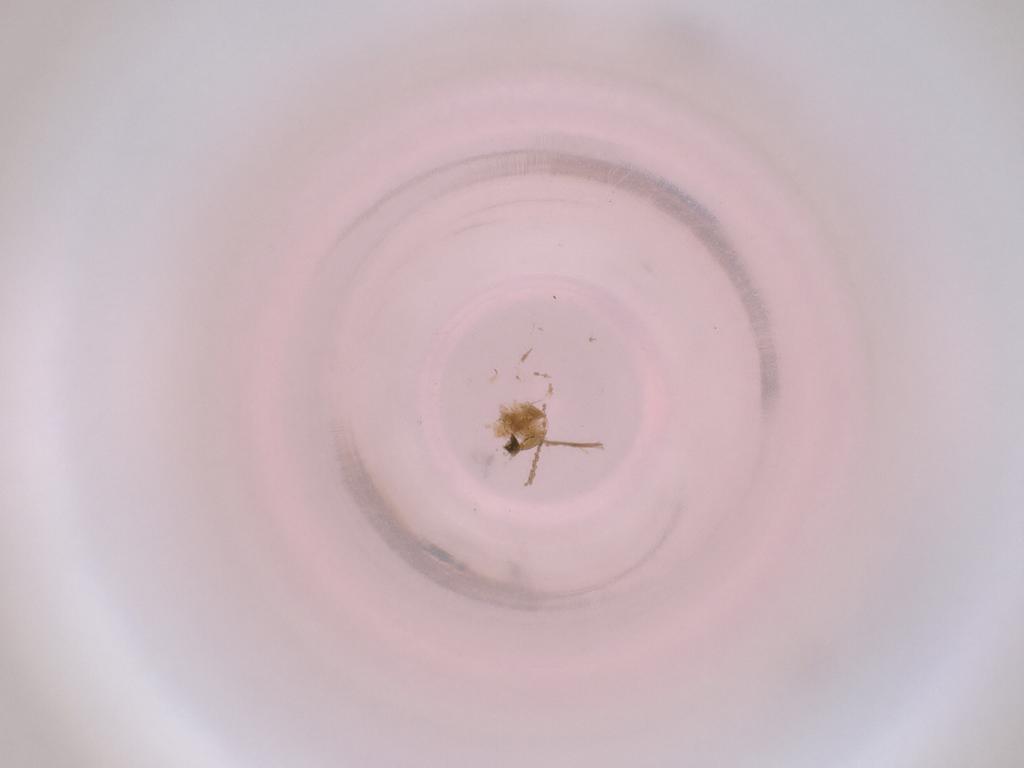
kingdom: Animalia
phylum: Arthropoda
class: Insecta
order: Diptera
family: Cecidomyiidae
